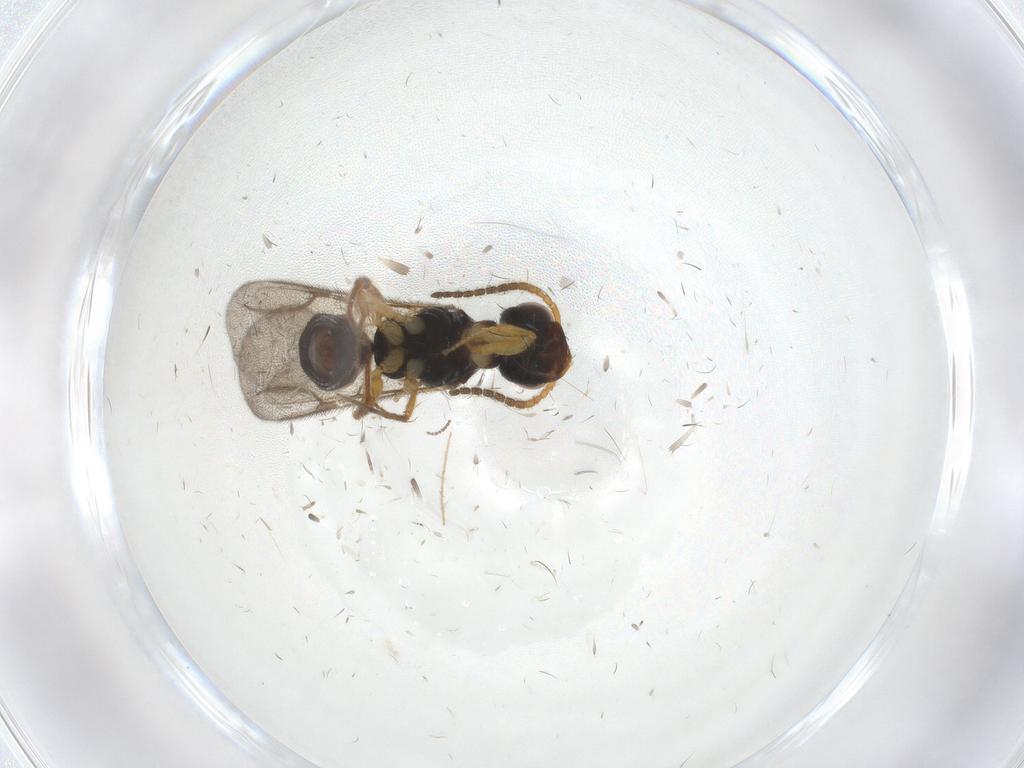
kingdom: Animalia
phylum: Arthropoda
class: Insecta
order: Hymenoptera
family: Bethylidae
